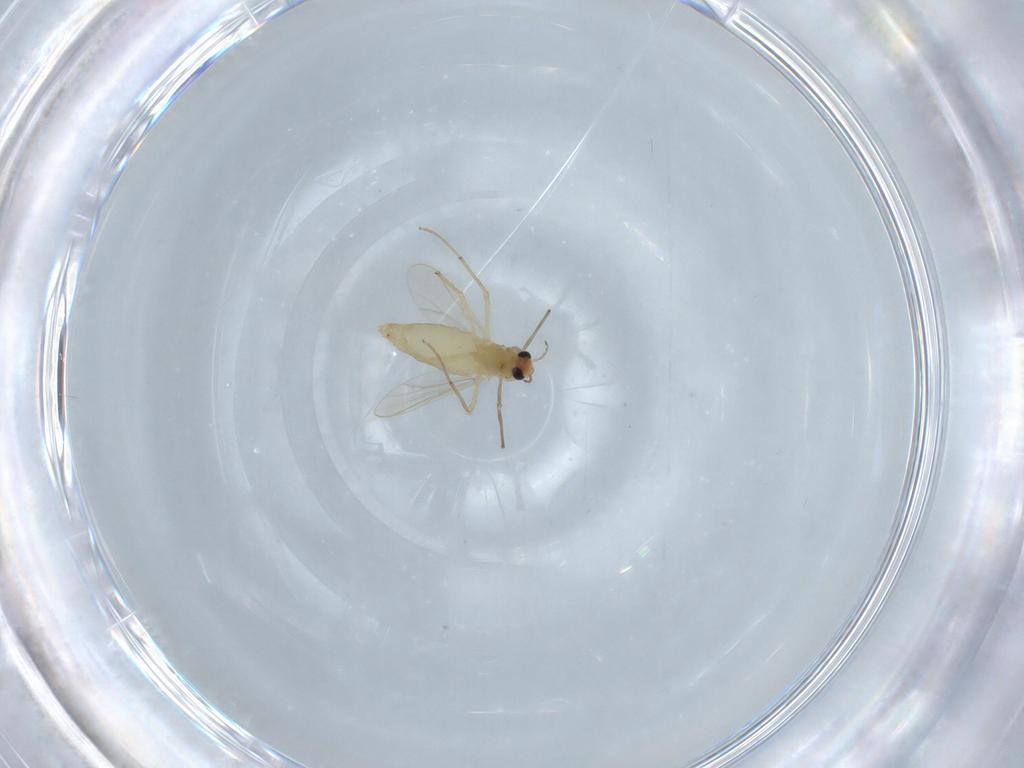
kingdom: Animalia
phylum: Arthropoda
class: Insecta
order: Diptera
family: Chironomidae
